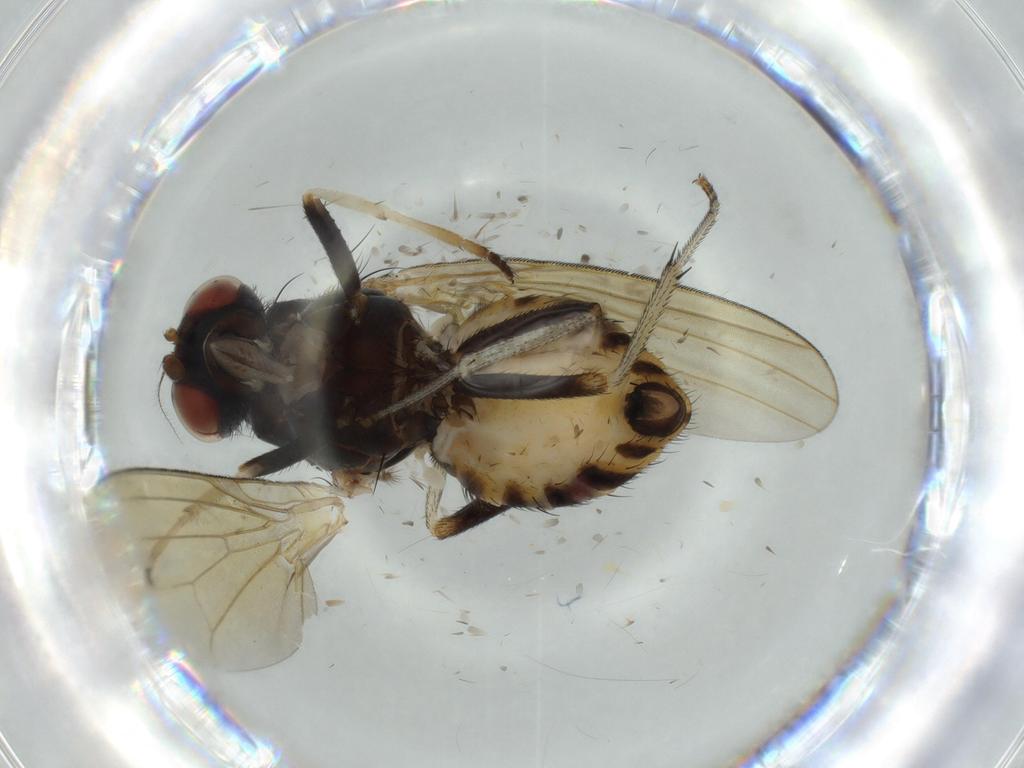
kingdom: Animalia
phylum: Arthropoda
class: Insecta
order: Diptera
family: Lauxaniidae
